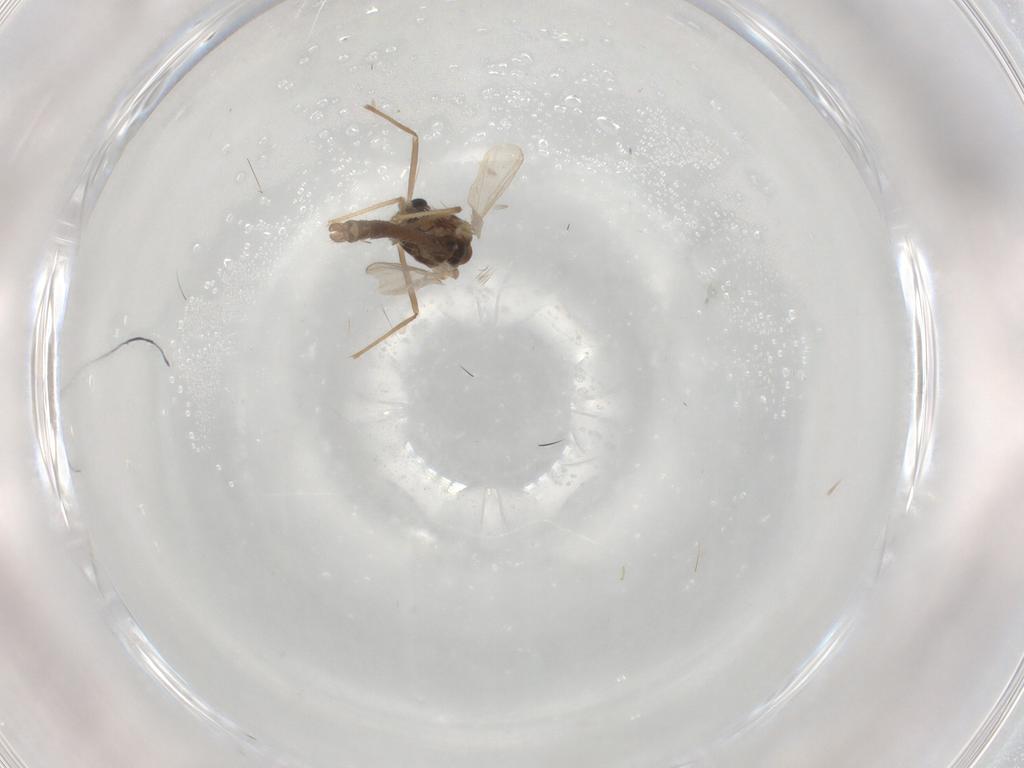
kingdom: Animalia
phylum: Arthropoda
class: Insecta
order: Diptera
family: Chironomidae
